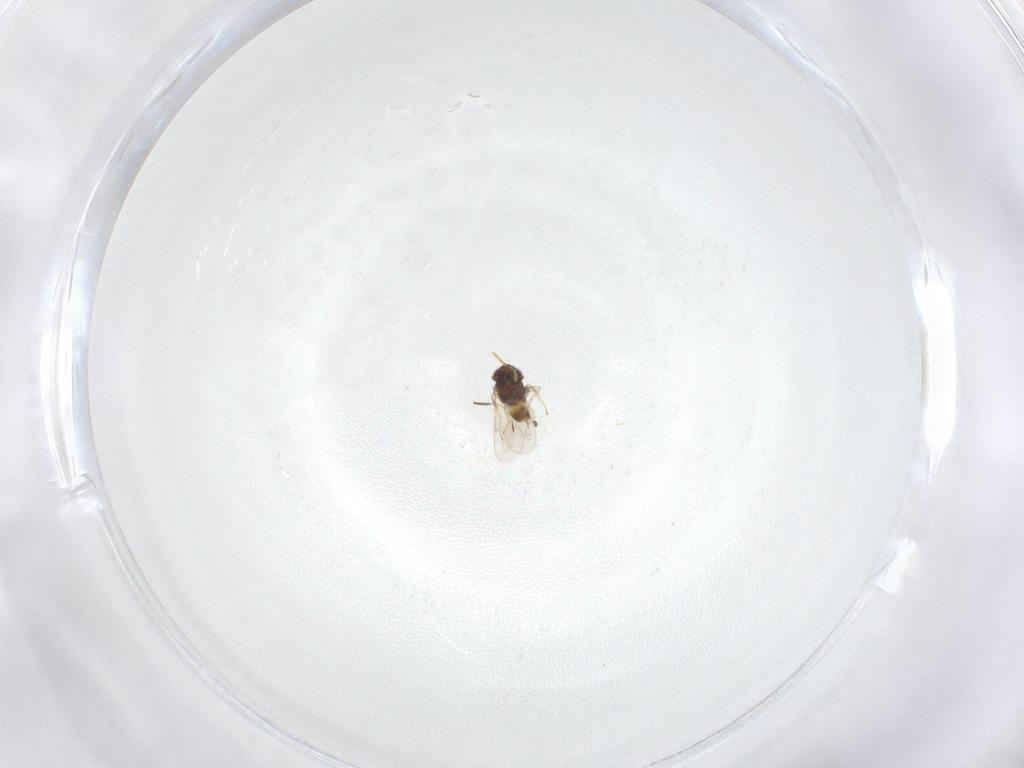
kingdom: Animalia
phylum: Arthropoda
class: Insecta
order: Hymenoptera
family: Aphelinidae
